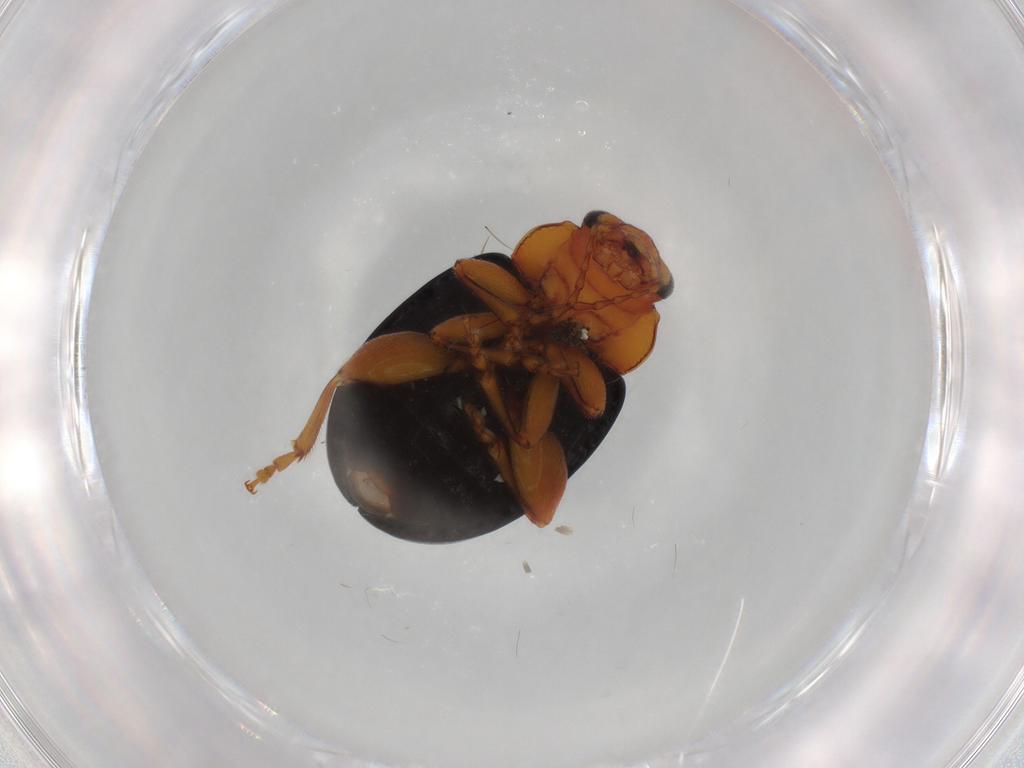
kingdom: Animalia
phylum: Arthropoda
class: Insecta
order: Coleoptera
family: Chrysomelidae
